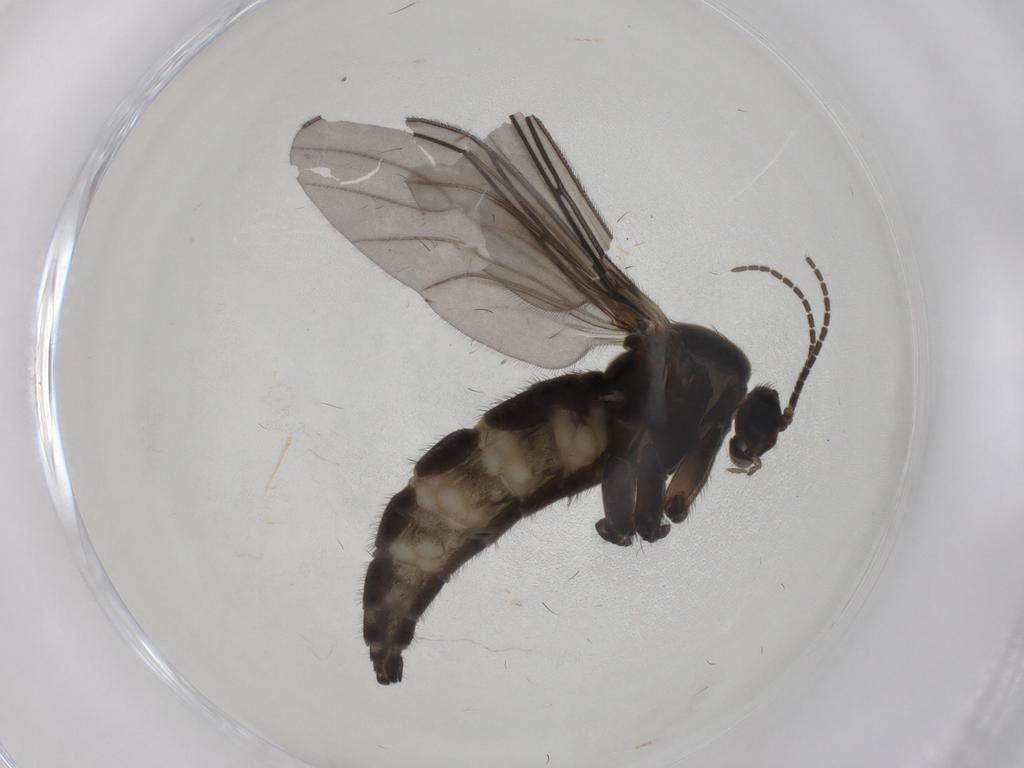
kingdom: Animalia
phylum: Arthropoda
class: Insecta
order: Diptera
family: Sciaridae
